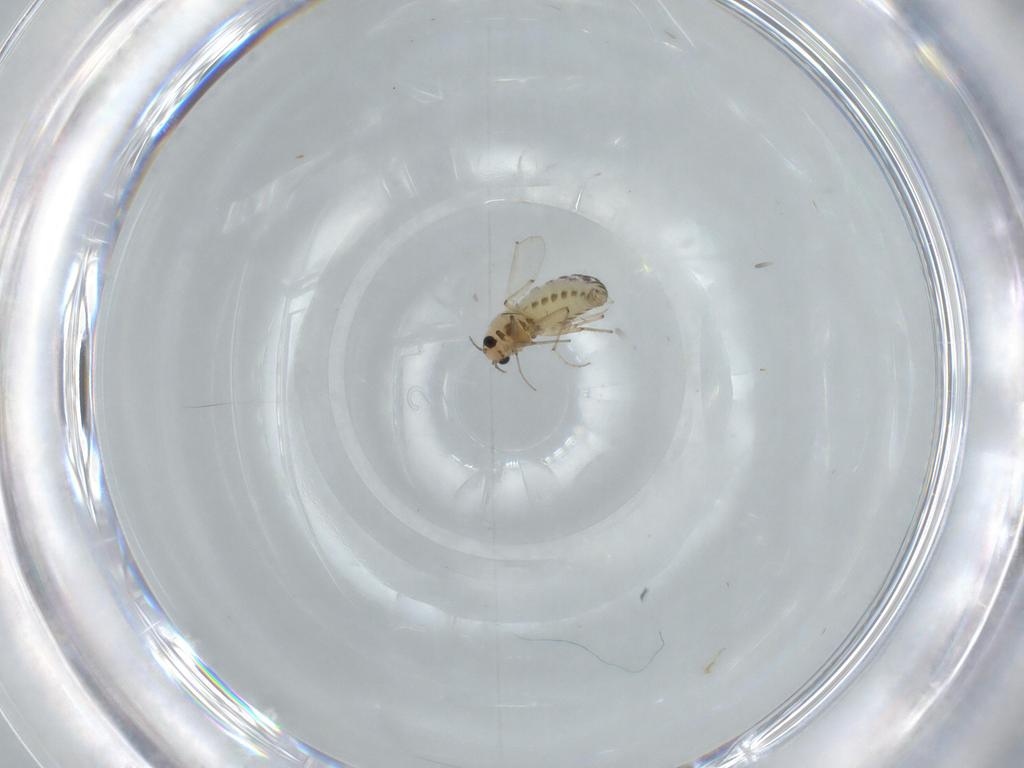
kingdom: Animalia
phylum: Arthropoda
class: Insecta
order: Diptera
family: Chironomidae
